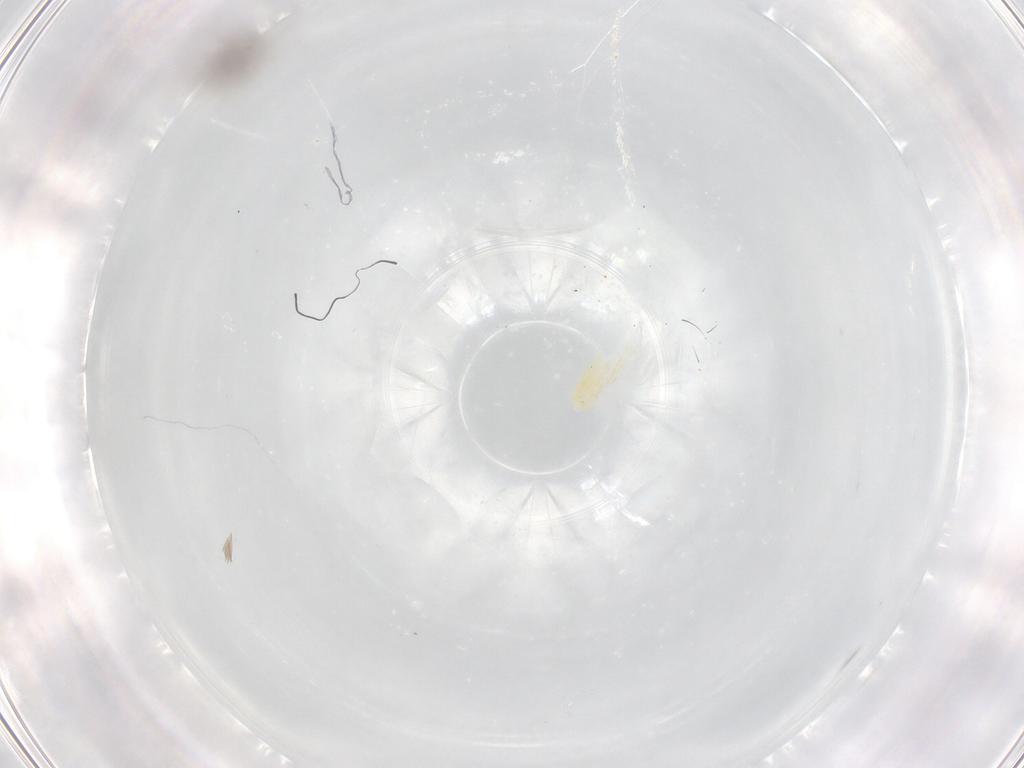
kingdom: Animalia
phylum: Arthropoda
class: Insecta
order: Blattodea
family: Blaberidae
